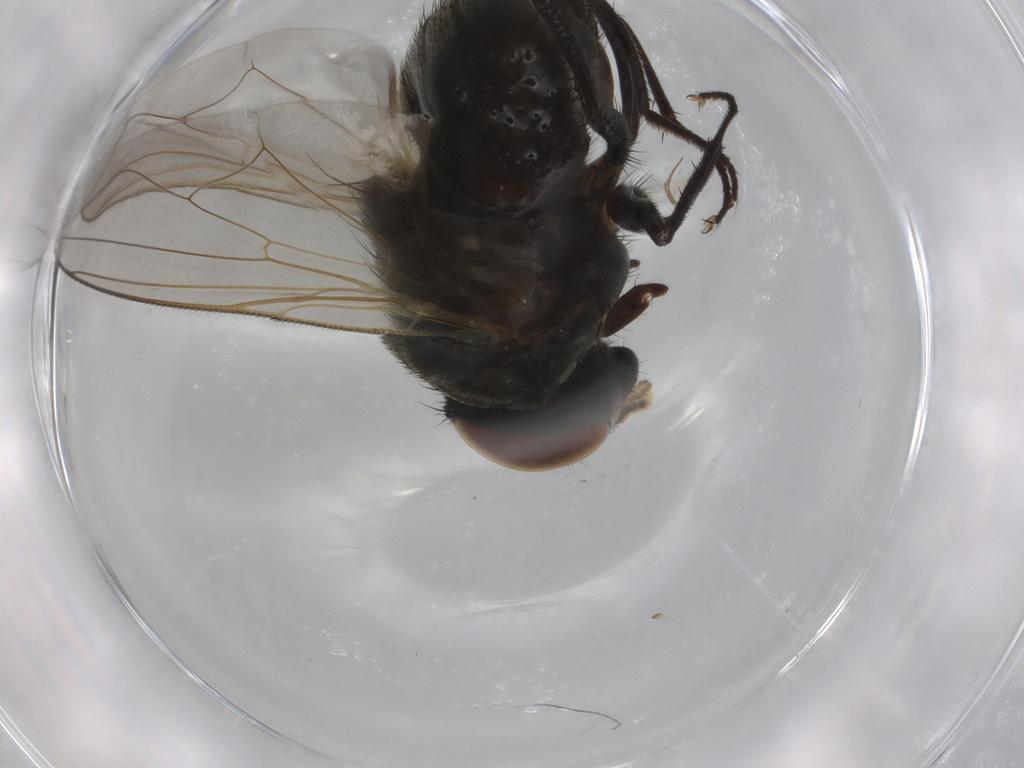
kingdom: Animalia
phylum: Arthropoda
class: Insecta
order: Diptera
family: Muscidae
